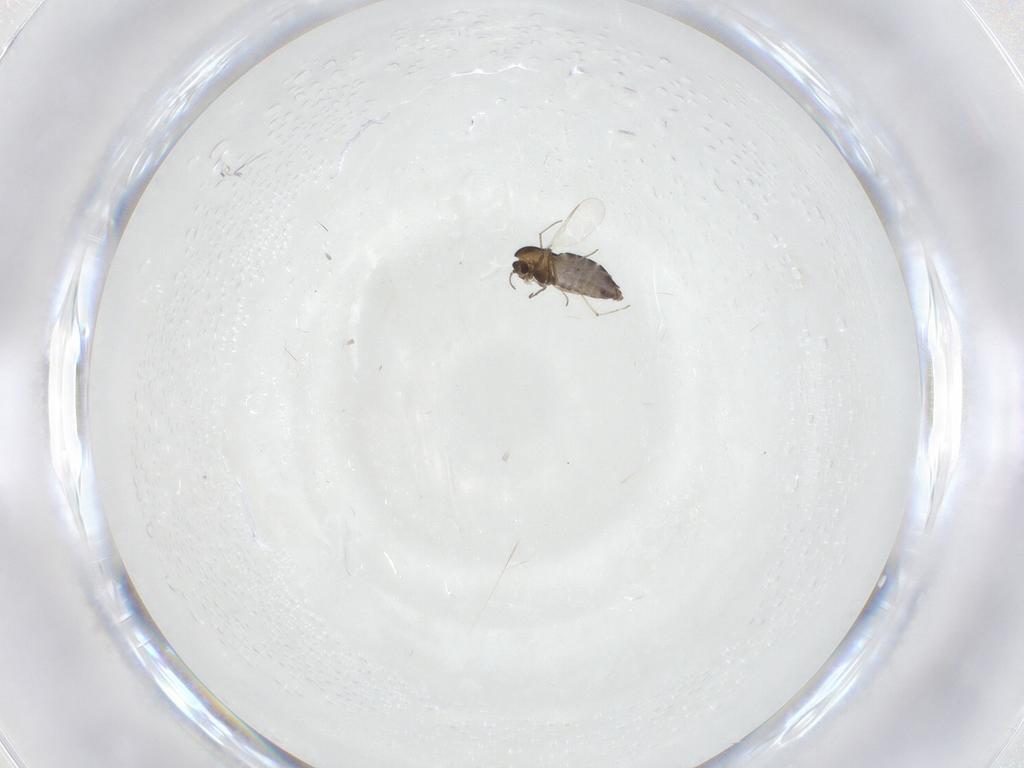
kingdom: Animalia
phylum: Arthropoda
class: Insecta
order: Diptera
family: Chironomidae
